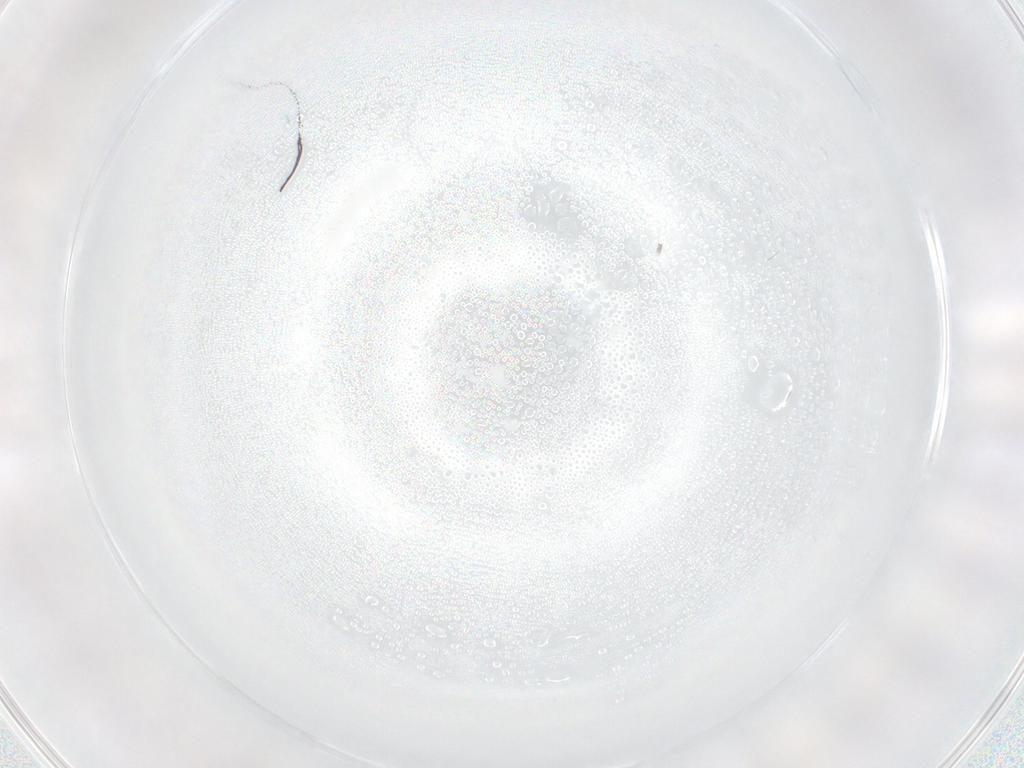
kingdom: Animalia
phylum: Arthropoda
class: Insecta
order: Hymenoptera
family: Mymaridae
